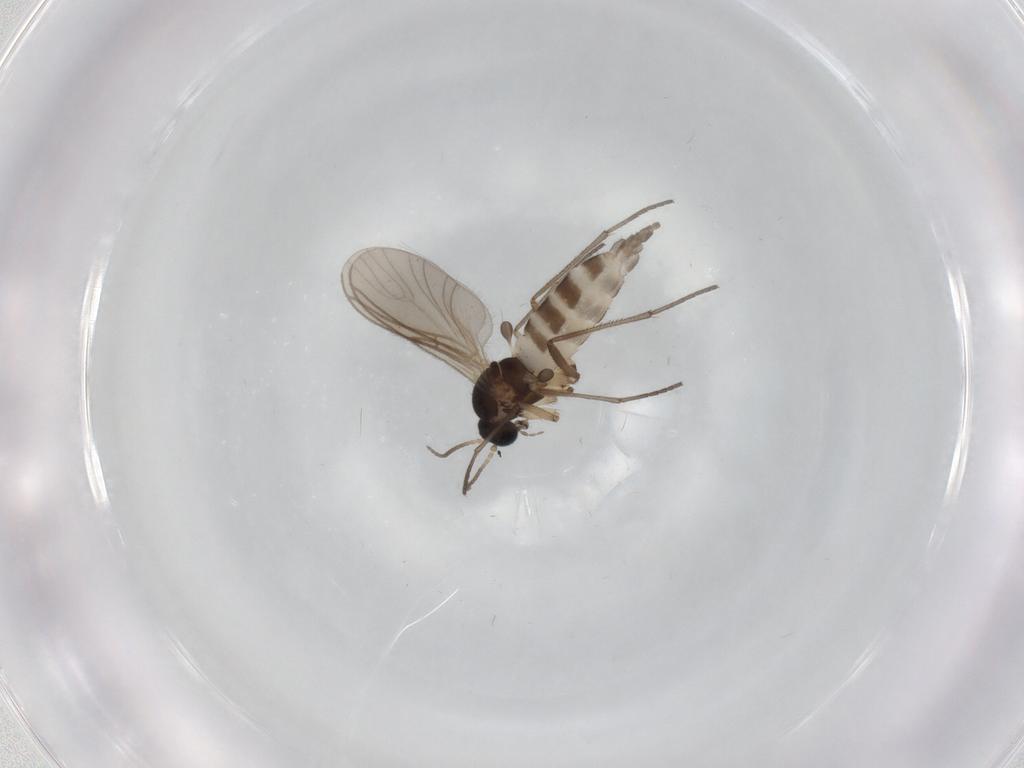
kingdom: Animalia
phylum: Arthropoda
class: Insecta
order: Diptera
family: Sciaridae
